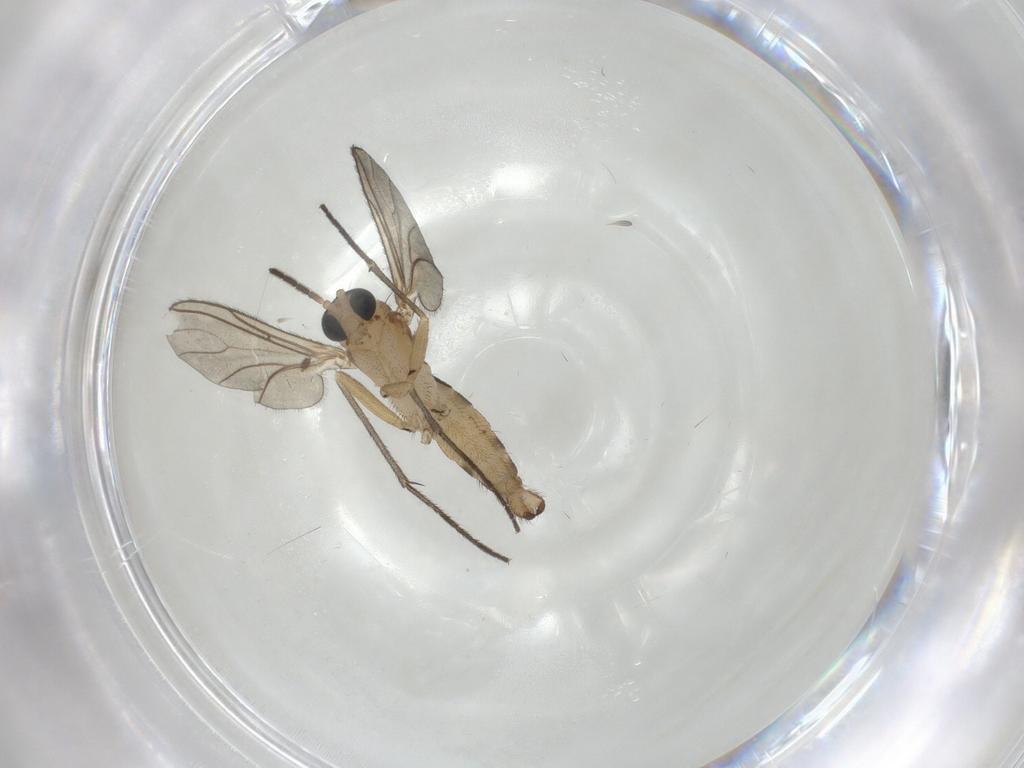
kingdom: Animalia
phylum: Arthropoda
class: Insecta
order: Diptera
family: Sciaridae
